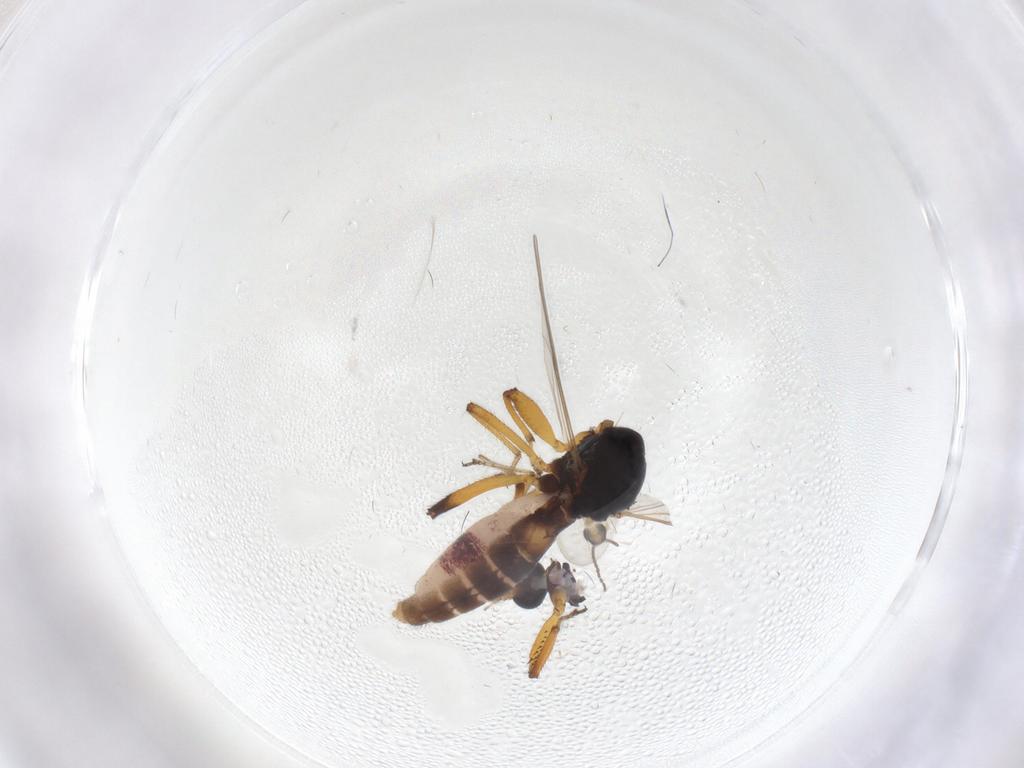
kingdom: Animalia
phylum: Arthropoda
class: Insecta
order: Diptera
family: Ceratopogonidae
